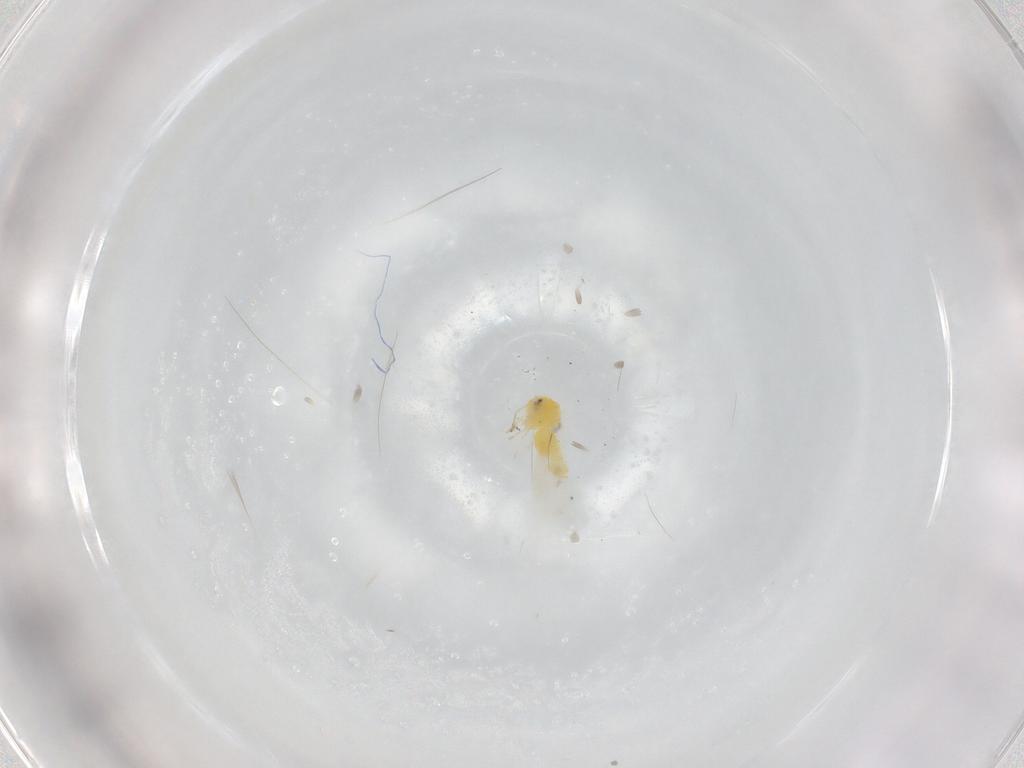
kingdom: Animalia
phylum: Arthropoda
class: Insecta
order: Hemiptera
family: Aleyrodidae
